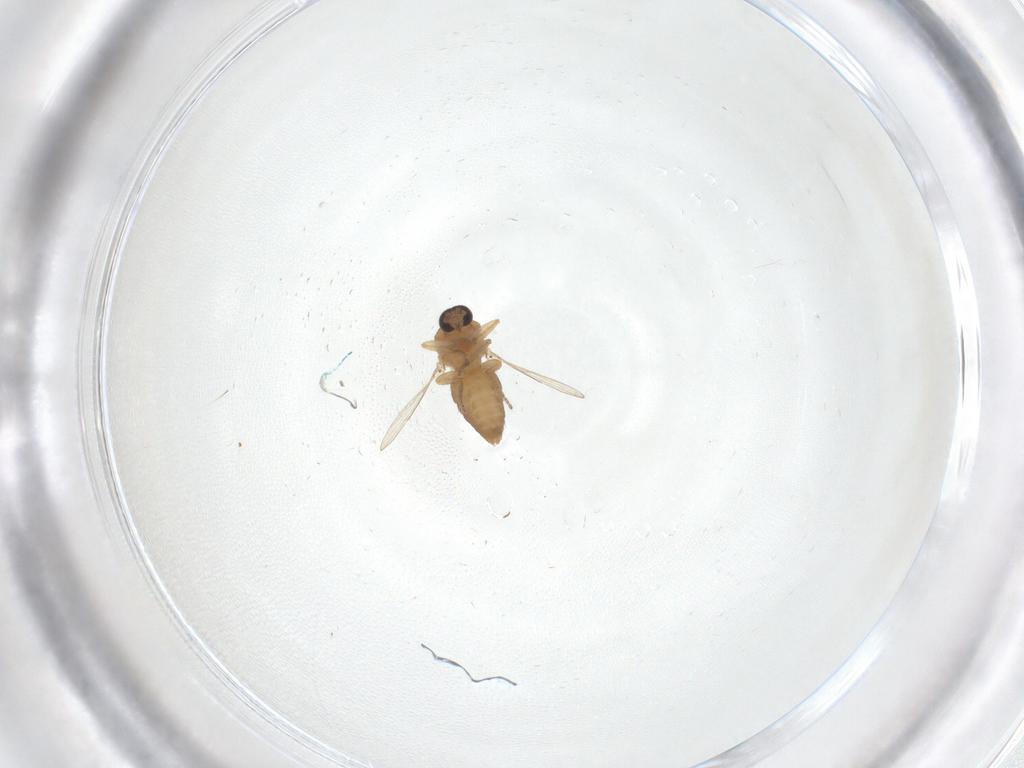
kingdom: Animalia
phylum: Arthropoda
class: Insecta
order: Diptera
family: Ceratopogonidae
